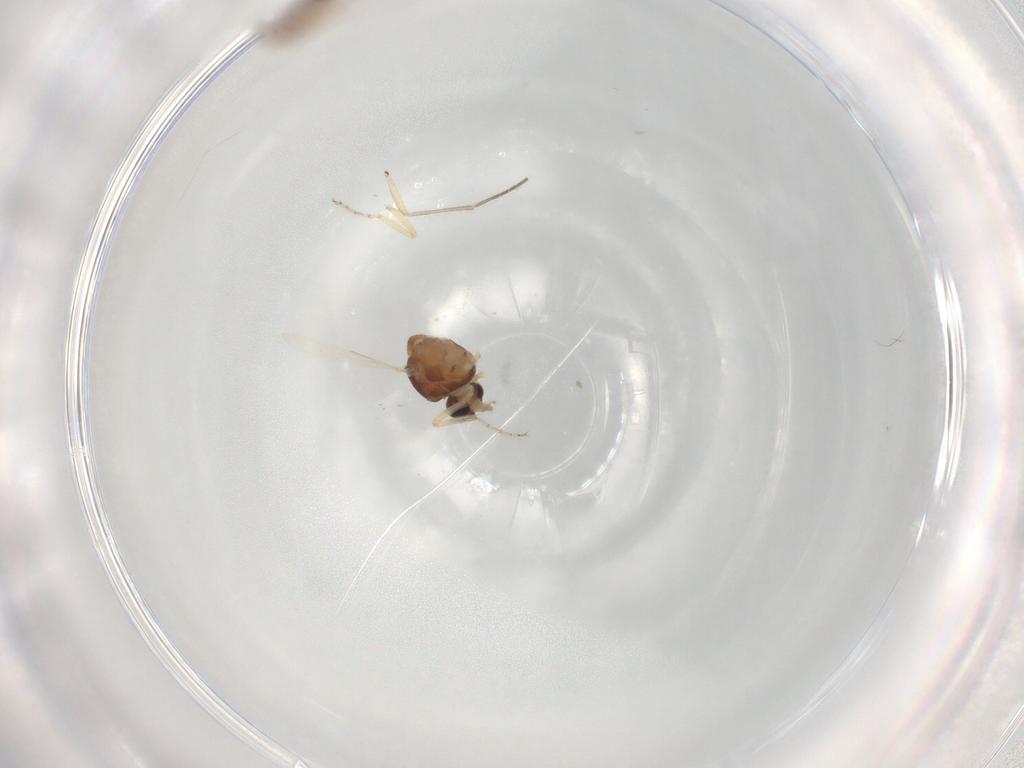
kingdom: Animalia
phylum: Arthropoda
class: Insecta
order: Diptera
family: Ceratopogonidae
